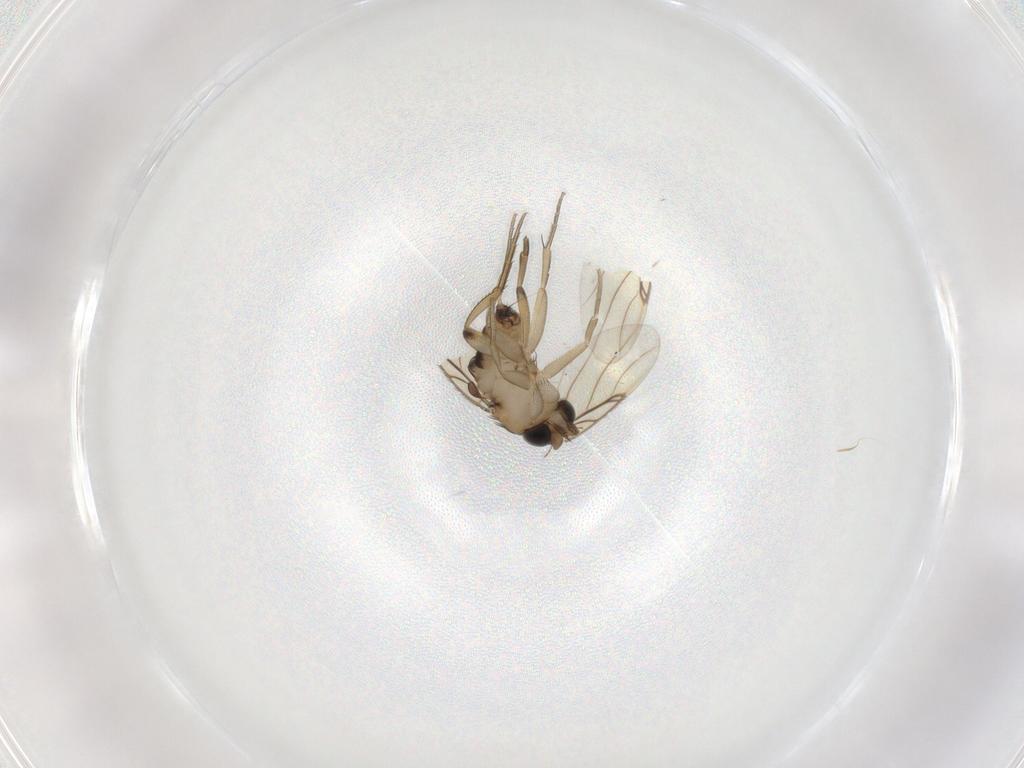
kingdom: Animalia
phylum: Arthropoda
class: Insecta
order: Diptera
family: Phoridae
